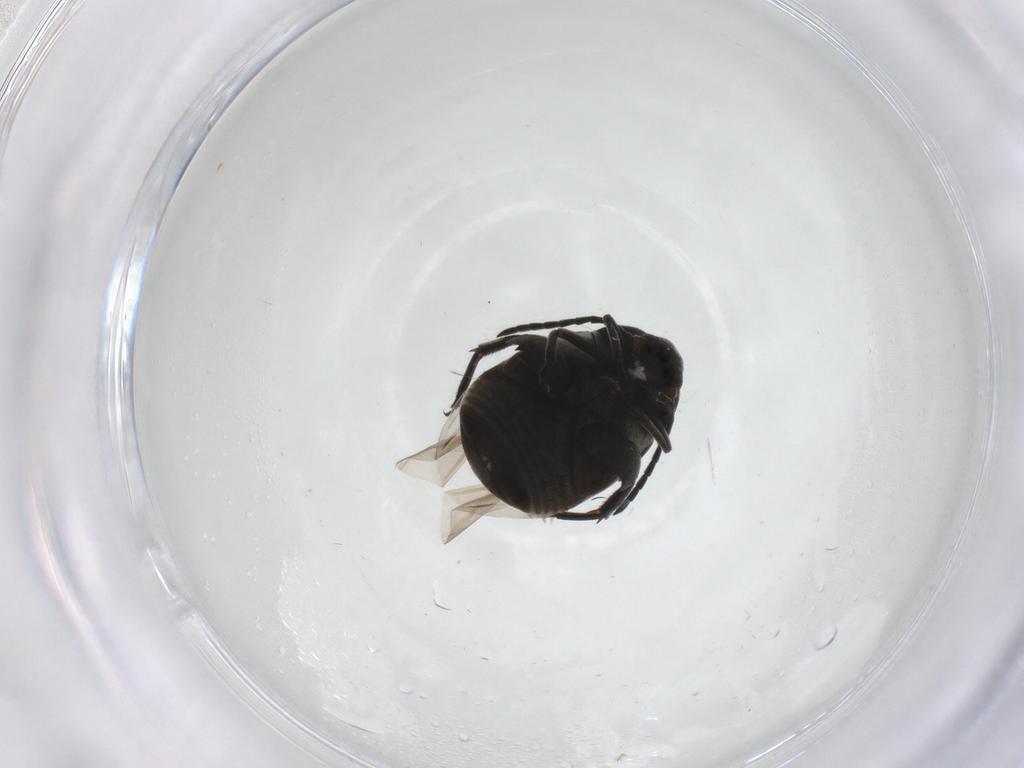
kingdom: Animalia
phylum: Arthropoda
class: Insecta
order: Coleoptera
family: Chrysomelidae
